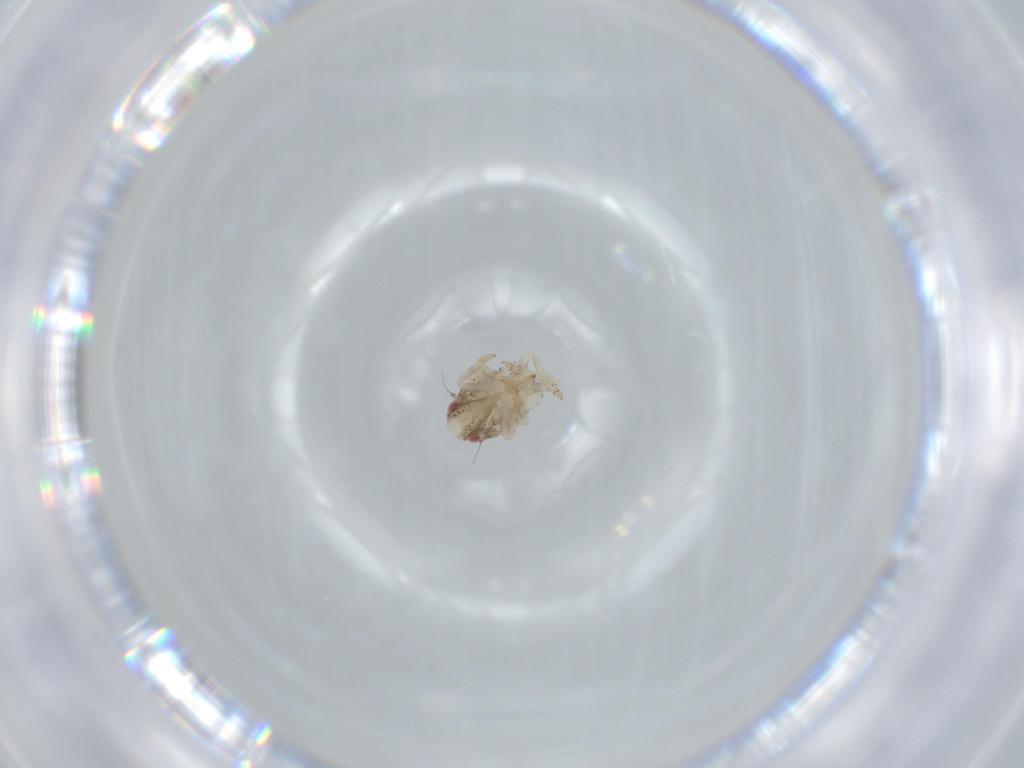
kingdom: Animalia
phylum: Arthropoda
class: Insecta
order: Hemiptera
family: Acanaloniidae
